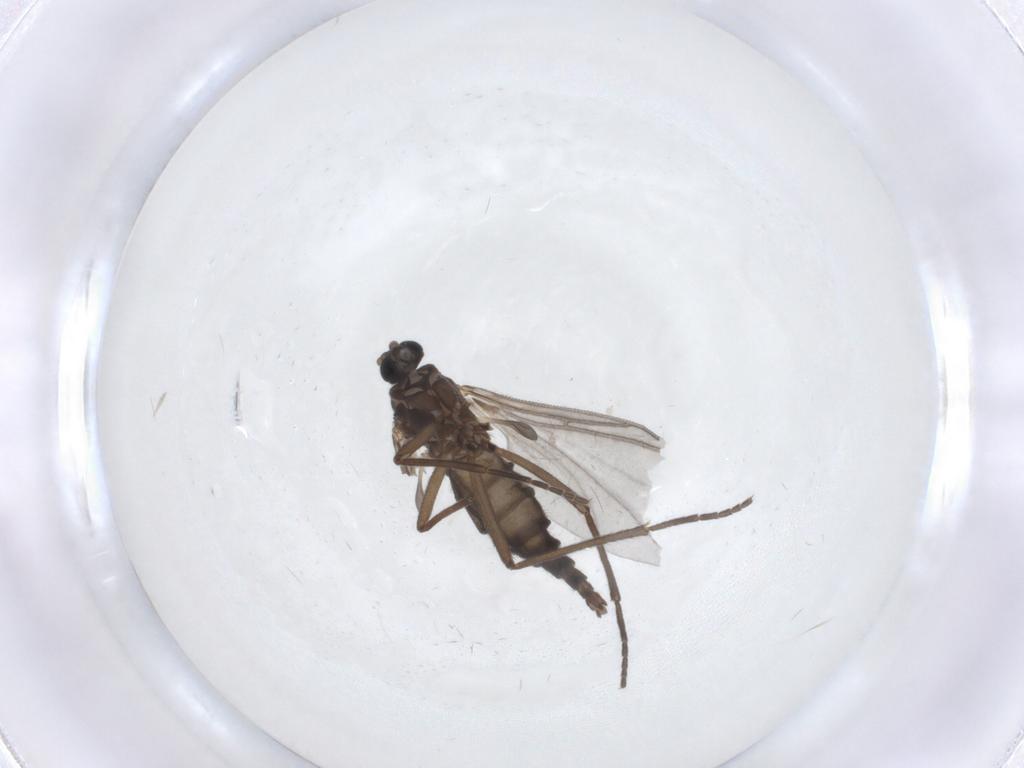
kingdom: Animalia
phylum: Arthropoda
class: Insecta
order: Diptera
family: Sciaridae
